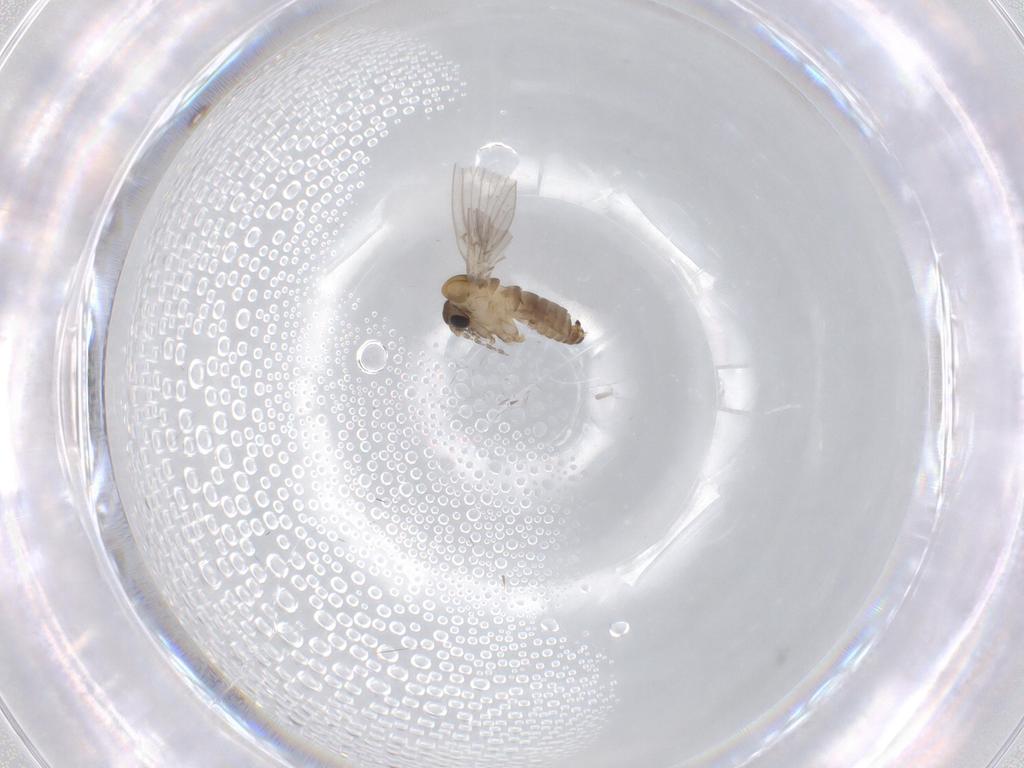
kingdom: Animalia
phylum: Arthropoda
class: Insecta
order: Diptera
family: Psychodidae
